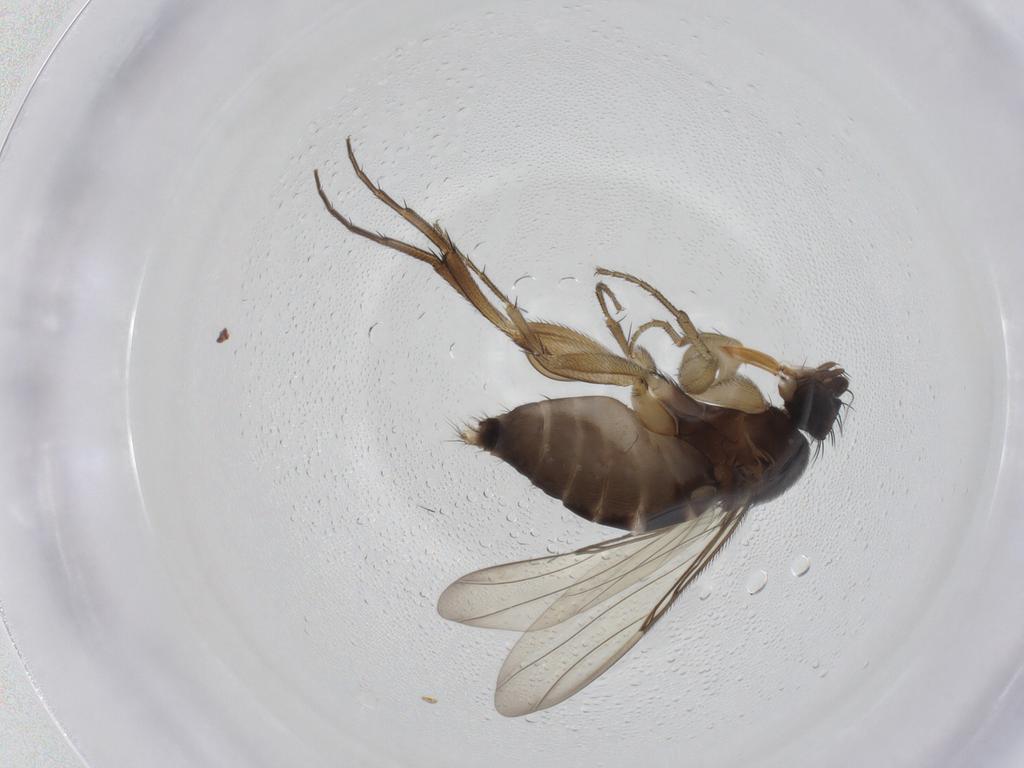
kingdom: Animalia
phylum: Arthropoda
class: Insecta
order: Diptera
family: Phoridae
